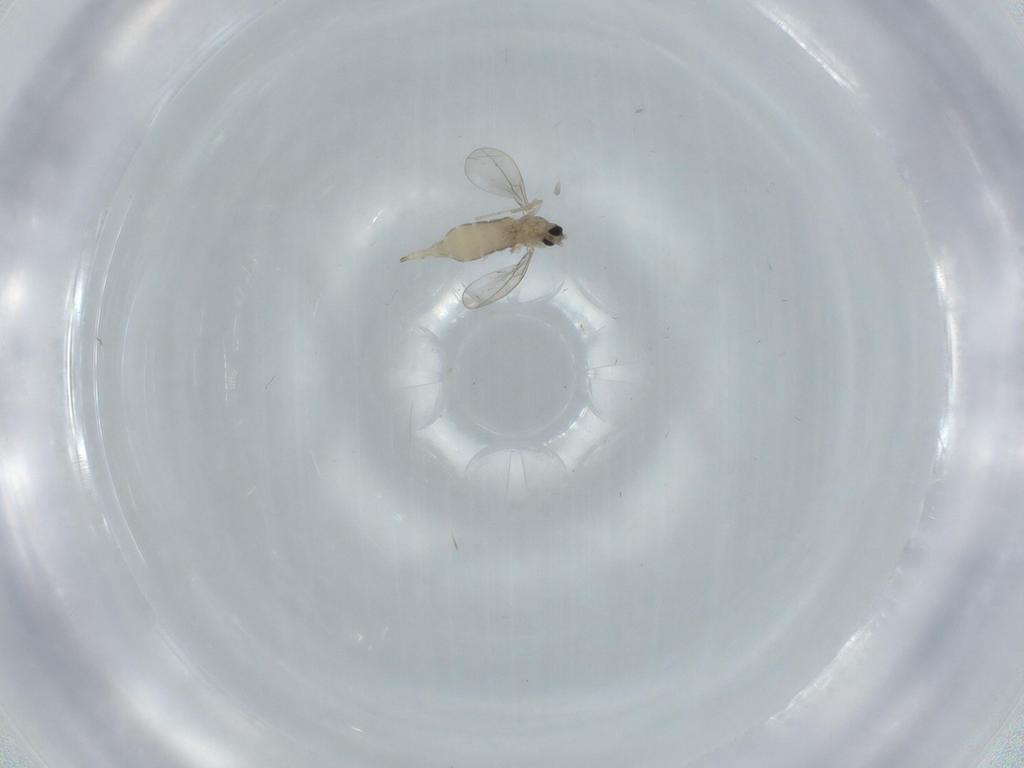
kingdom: Animalia
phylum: Arthropoda
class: Insecta
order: Diptera
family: Cecidomyiidae
